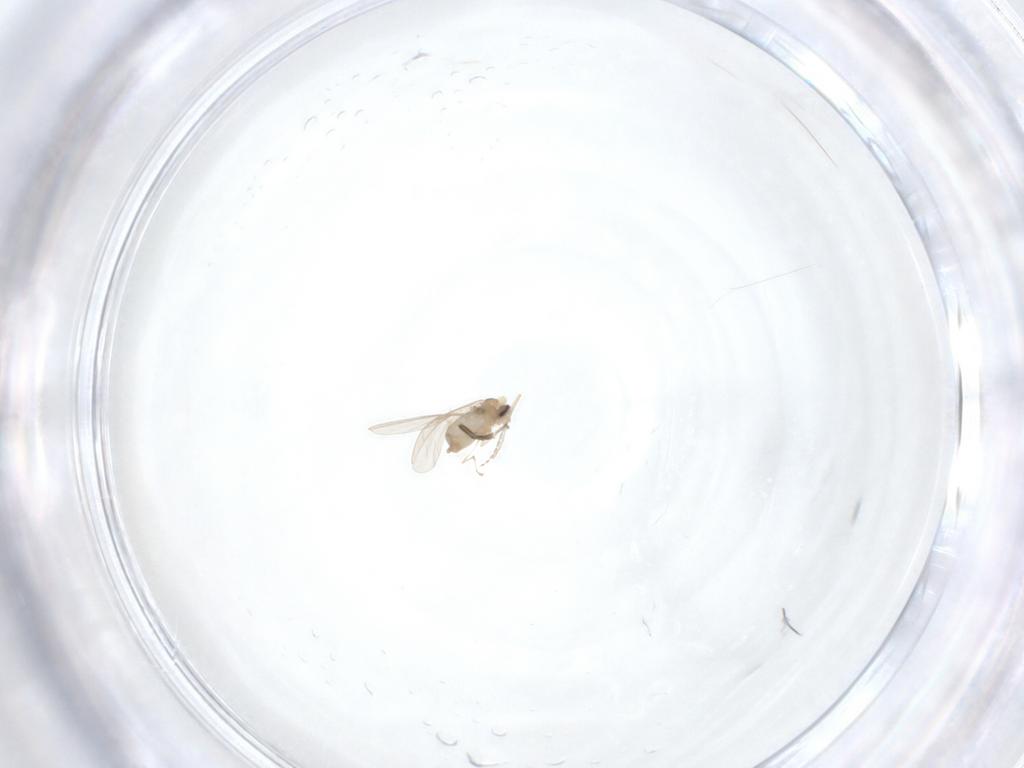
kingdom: Animalia
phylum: Arthropoda
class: Insecta
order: Diptera
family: Cecidomyiidae
